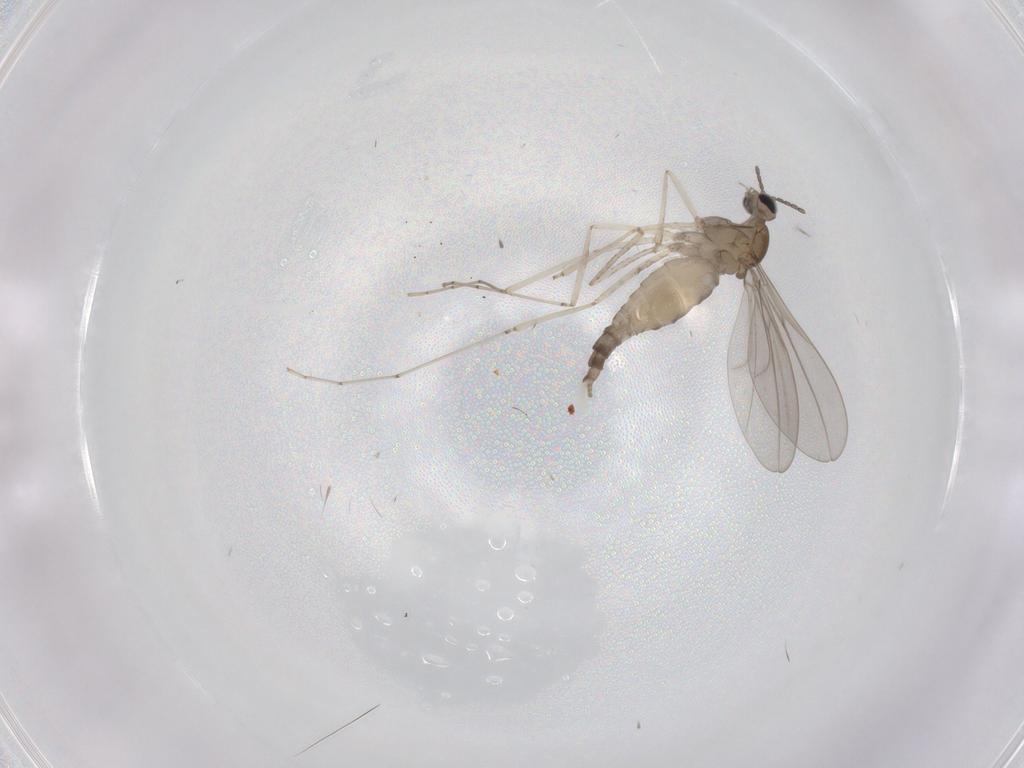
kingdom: Animalia
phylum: Arthropoda
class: Insecta
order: Diptera
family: Cecidomyiidae
